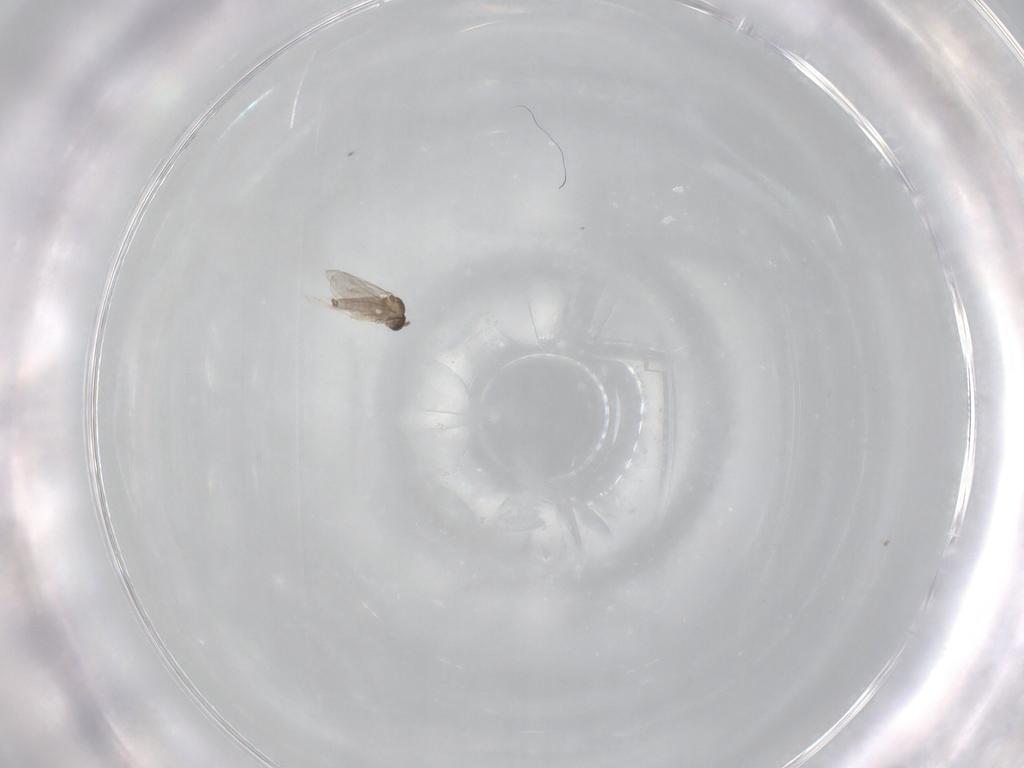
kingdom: Animalia
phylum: Arthropoda
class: Insecta
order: Diptera
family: Cecidomyiidae
